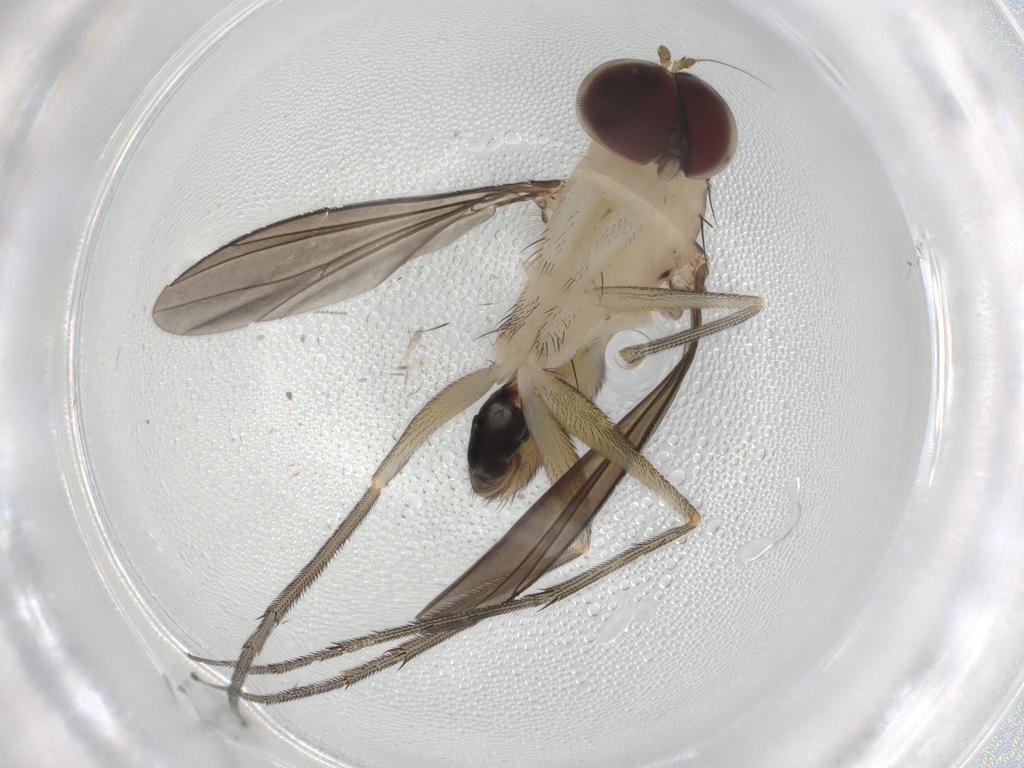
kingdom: Animalia
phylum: Arthropoda
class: Insecta
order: Diptera
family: Dolichopodidae
